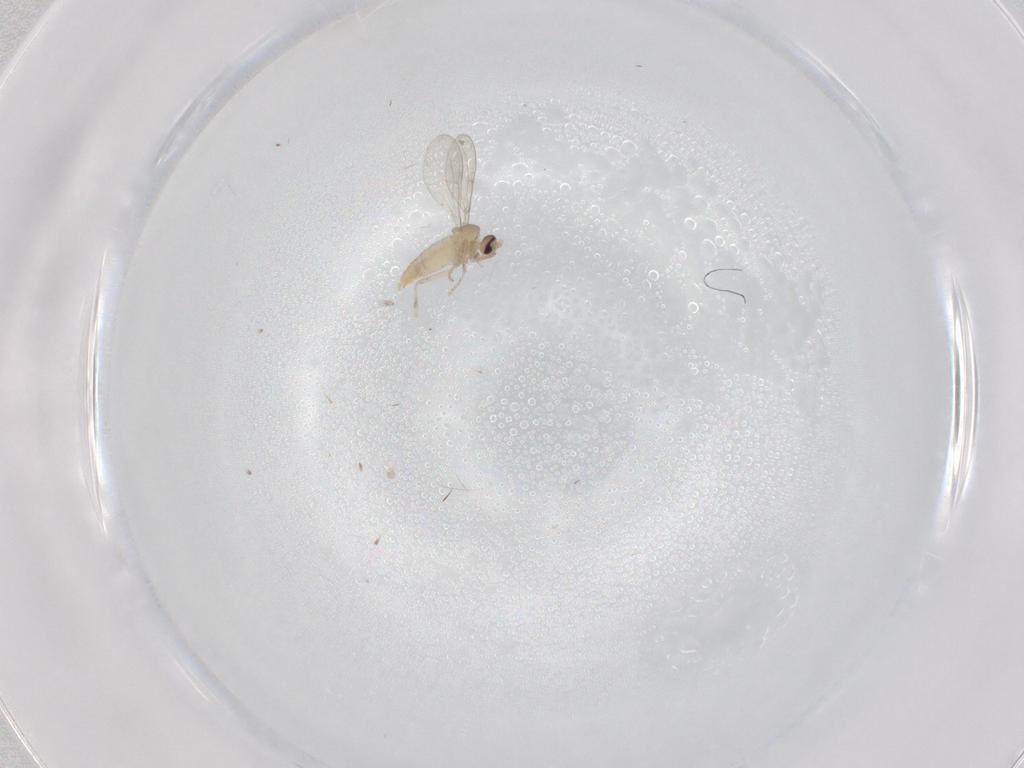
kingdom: Animalia
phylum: Arthropoda
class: Insecta
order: Diptera
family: Cecidomyiidae
